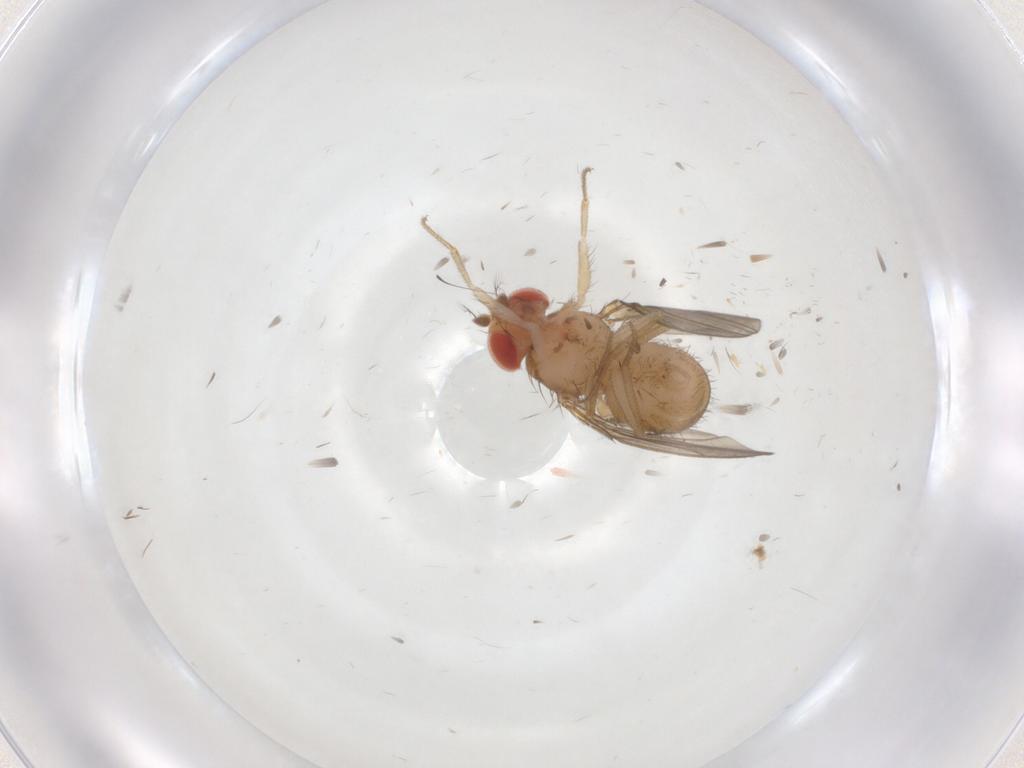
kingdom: Animalia
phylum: Arthropoda
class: Insecta
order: Diptera
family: Drosophilidae
